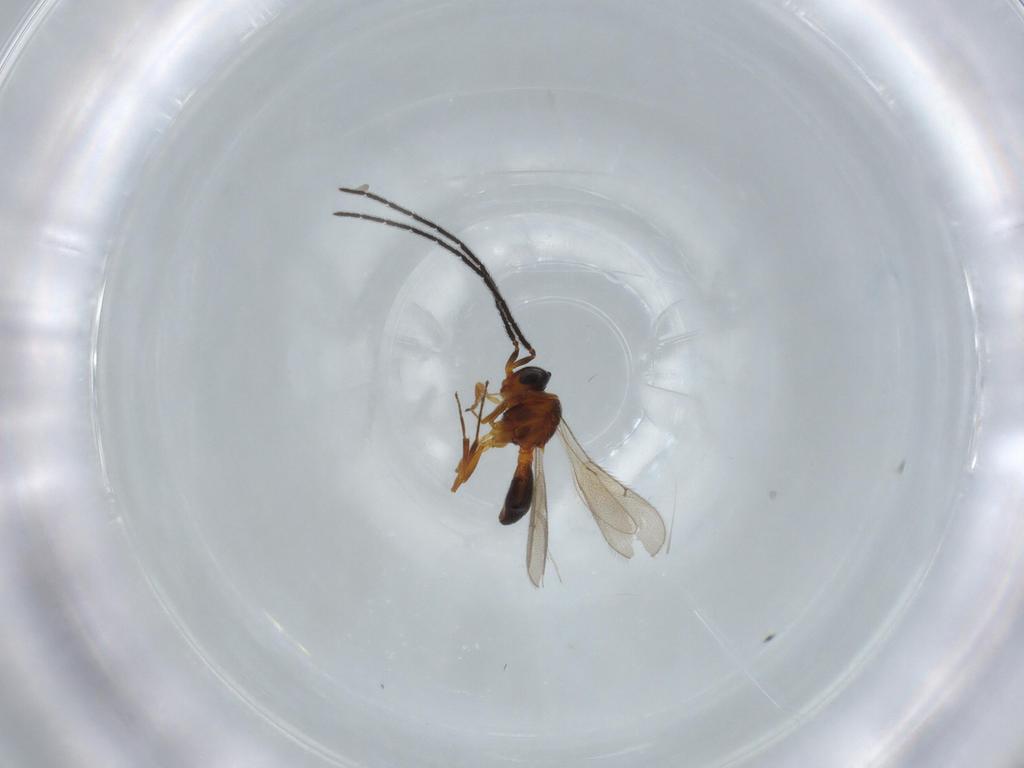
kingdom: Animalia
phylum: Arthropoda
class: Insecta
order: Hymenoptera
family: Scelionidae
